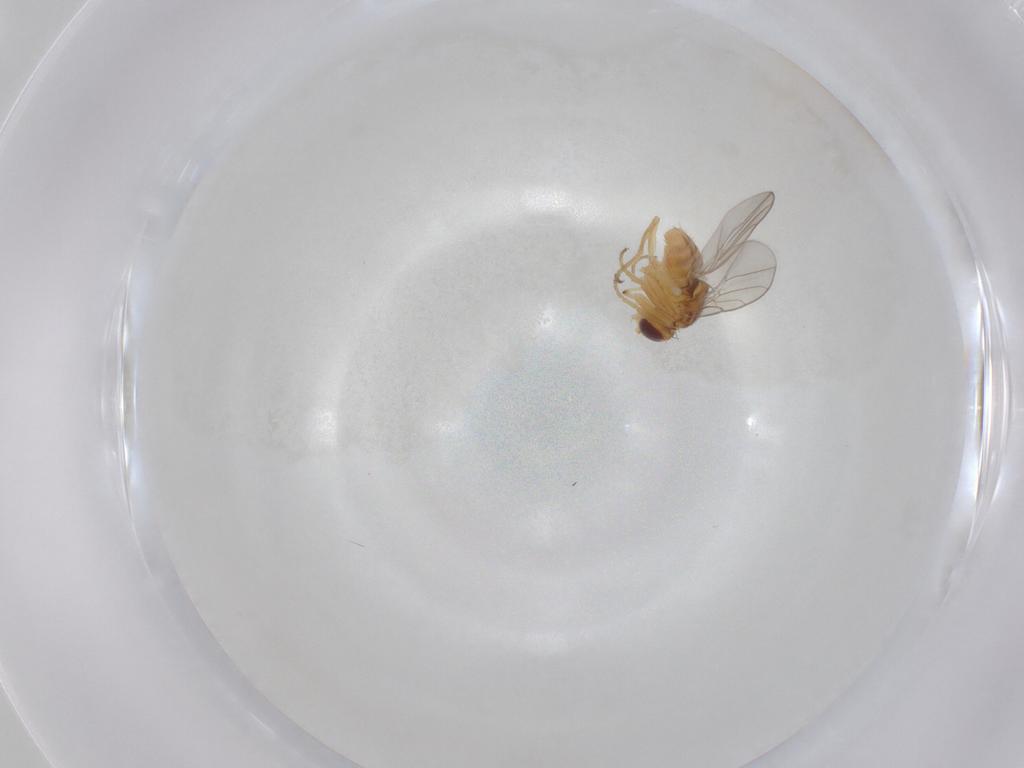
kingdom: Animalia
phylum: Arthropoda
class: Insecta
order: Diptera
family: Chloropidae
